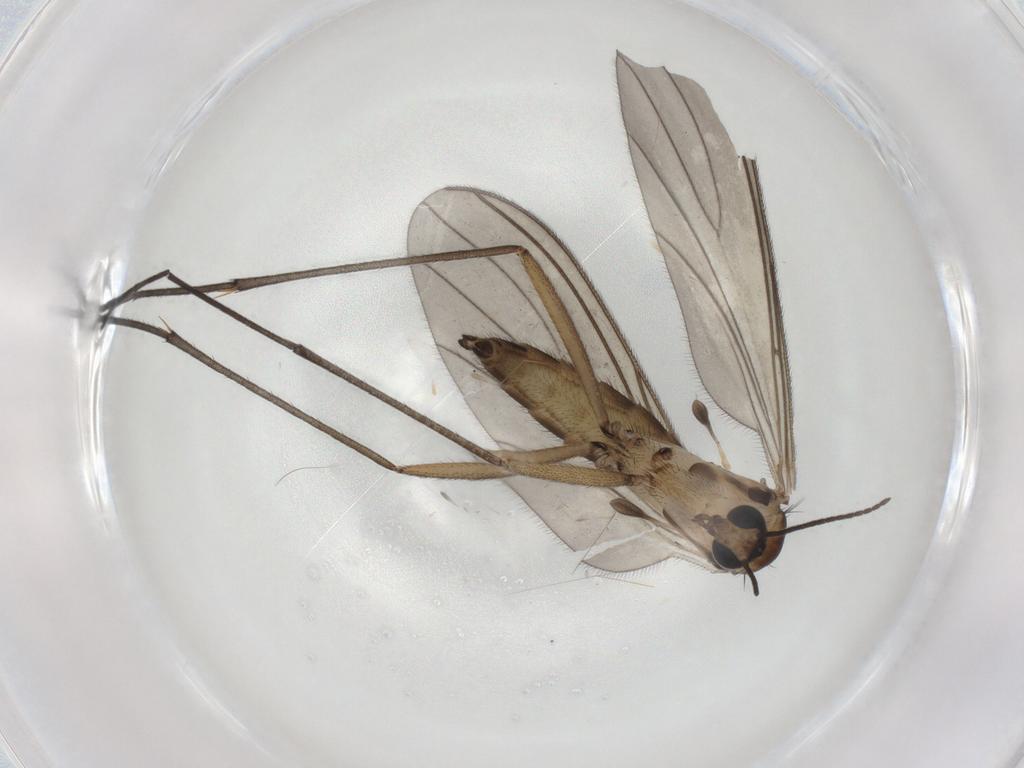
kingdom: Animalia
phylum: Arthropoda
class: Insecta
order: Diptera
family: Sciaridae
